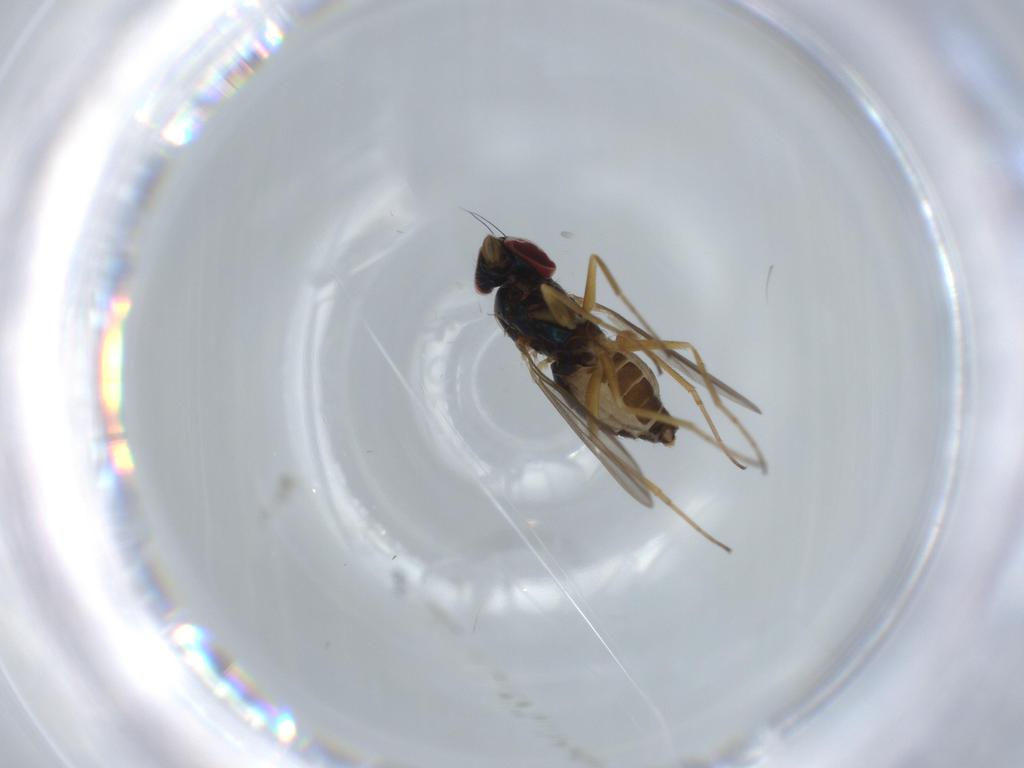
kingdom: Animalia
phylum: Arthropoda
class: Insecta
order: Diptera
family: Dolichopodidae
